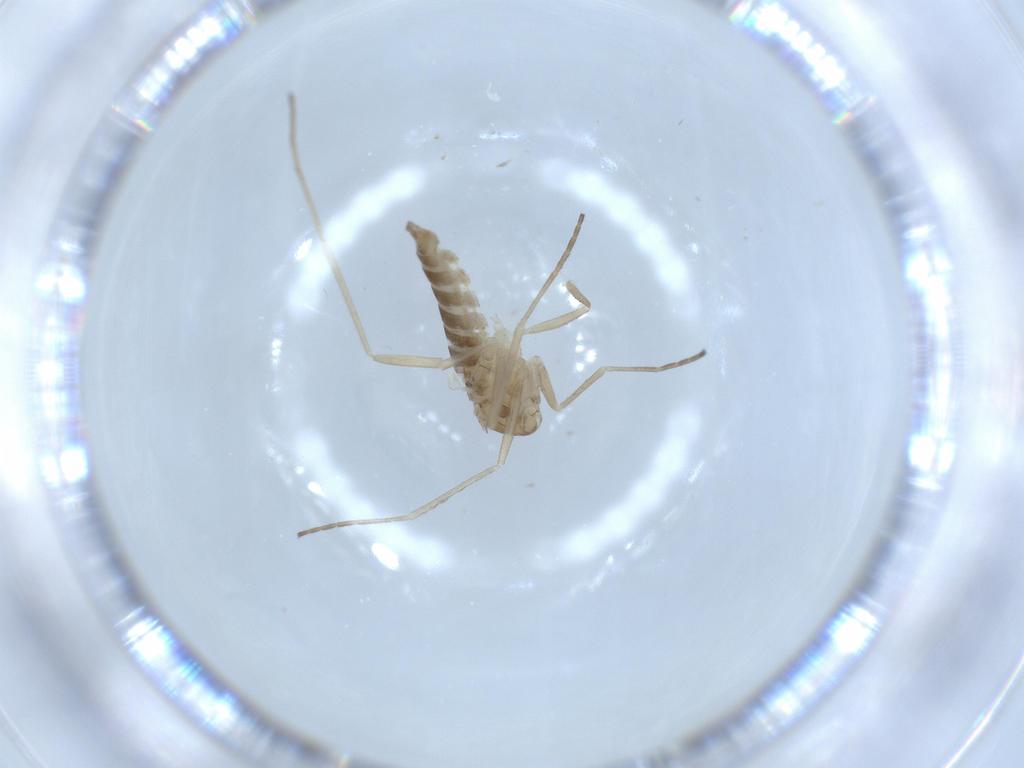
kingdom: Animalia
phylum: Arthropoda
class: Insecta
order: Diptera
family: Cecidomyiidae
